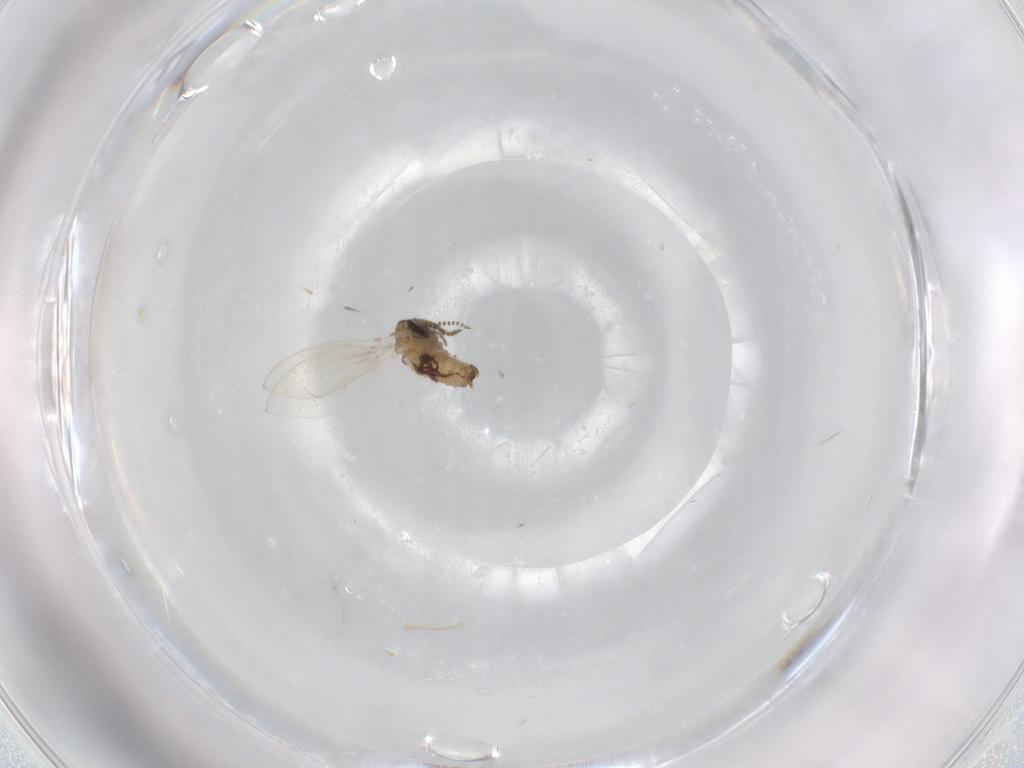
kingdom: Animalia
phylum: Arthropoda
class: Insecta
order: Diptera
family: Psychodidae
